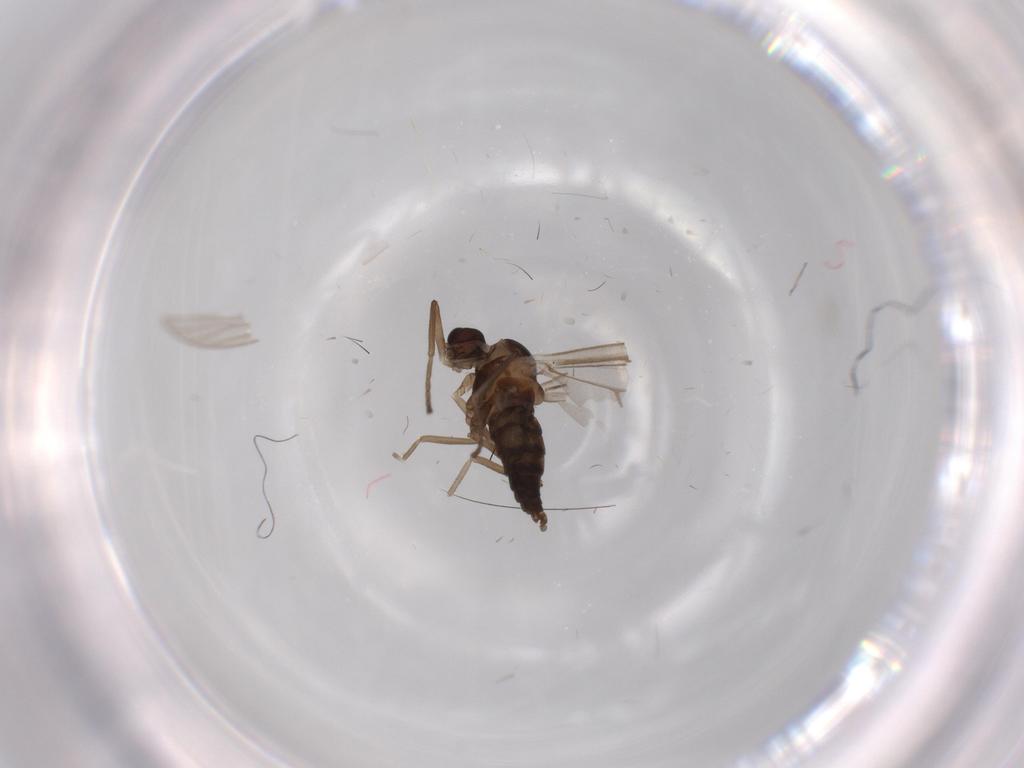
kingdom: Animalia
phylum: Arthropoda
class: Insecta
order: Diptera
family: Cecidomyiidae
